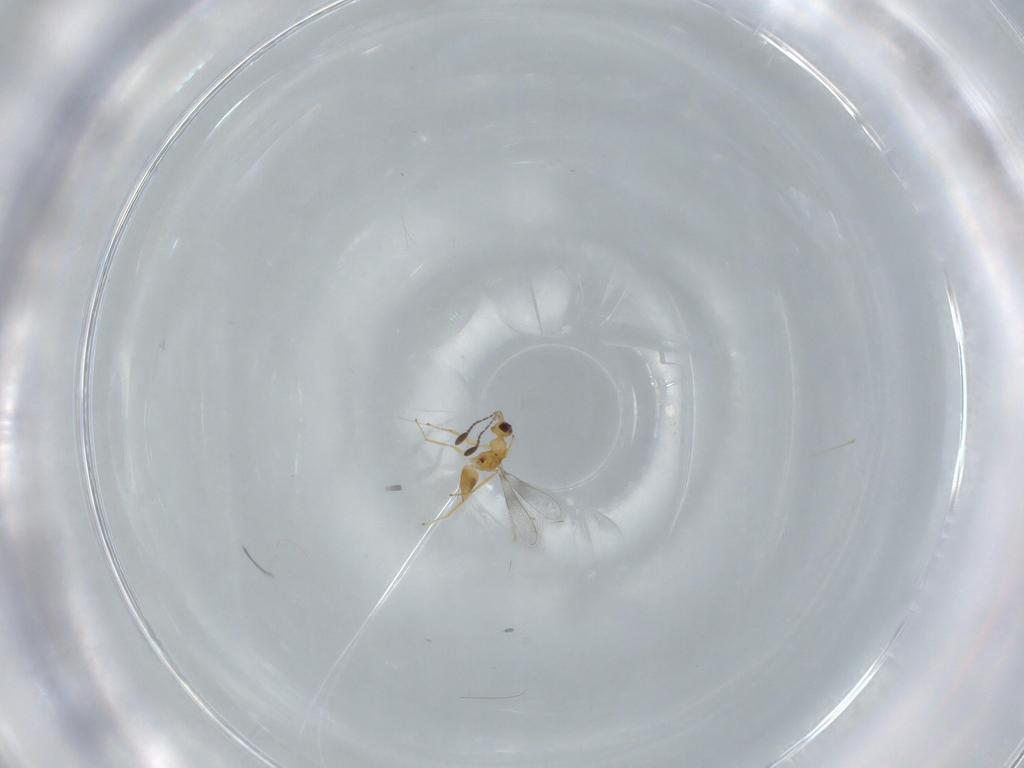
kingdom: Animalia
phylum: Arthropoda
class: Insecta
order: Hymenoptera
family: Mymaridae
